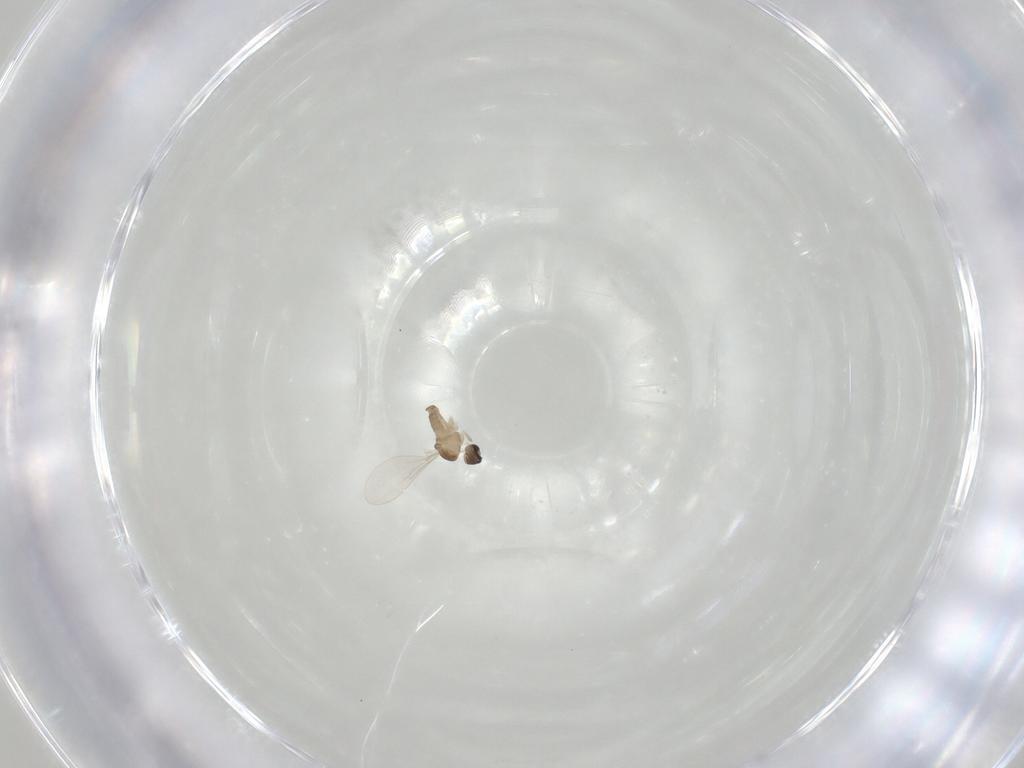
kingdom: Animalia
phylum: Arthropoda
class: Insecta
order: Diptera
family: Cecidomyiidae
